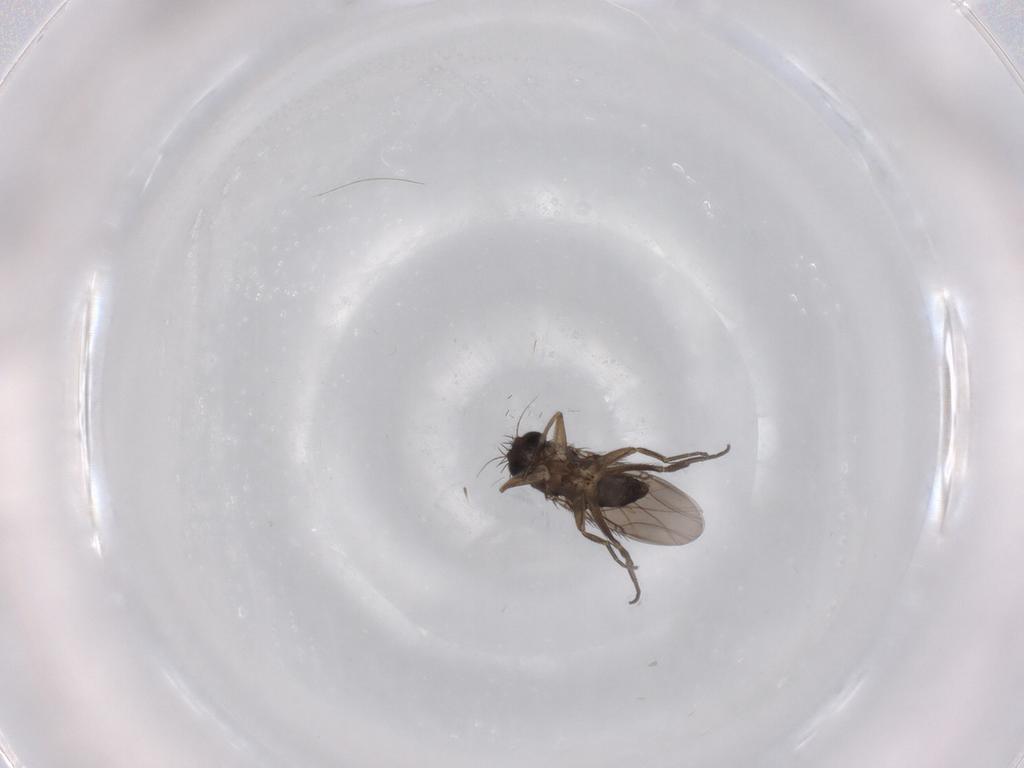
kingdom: Animalia
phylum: Arthropoda
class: Insecta
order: Diptera
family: Phoridae
